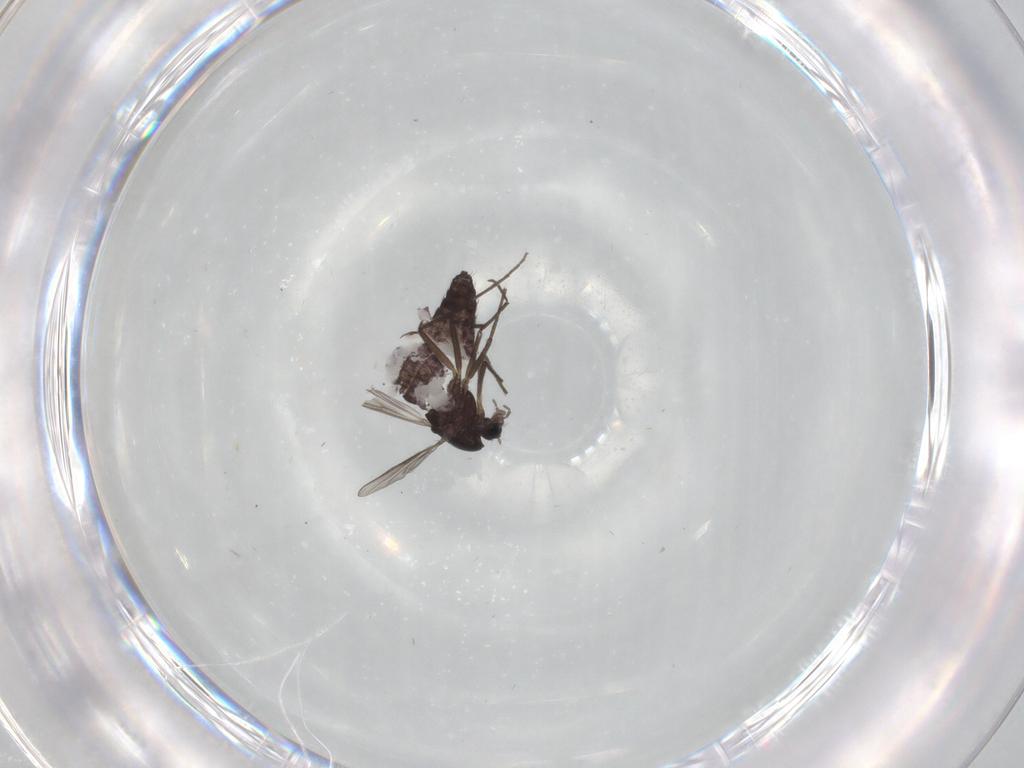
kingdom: Animalia
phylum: Arthropoda
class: Insecta
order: Diptera
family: Chironomidae
